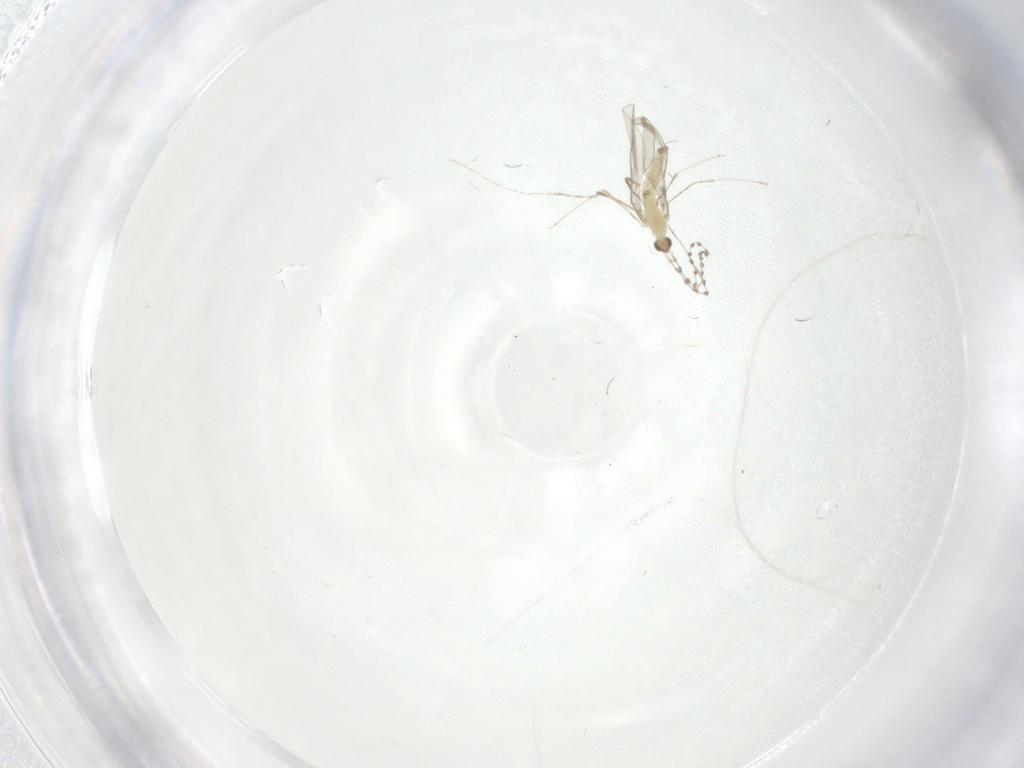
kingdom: Animalia
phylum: Arthropoda
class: Insecta
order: Diptera
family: Cecidomyiidae
